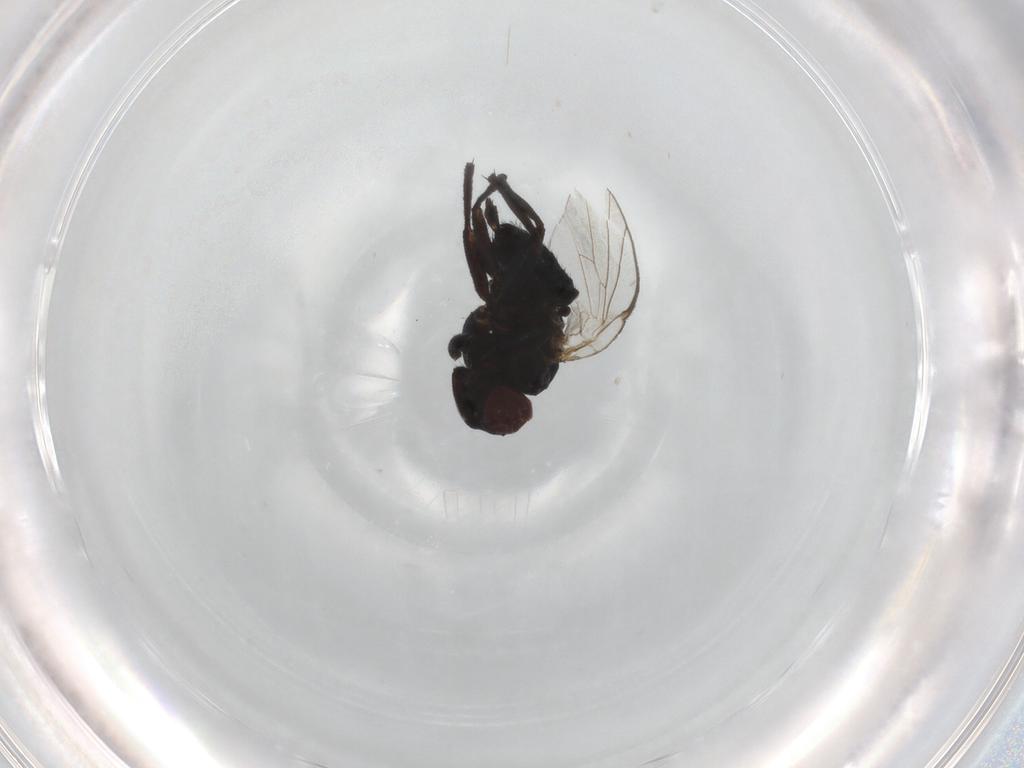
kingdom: Animalia
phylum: Arthropoda
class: Insecta
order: Diptera
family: Agromyzidae
